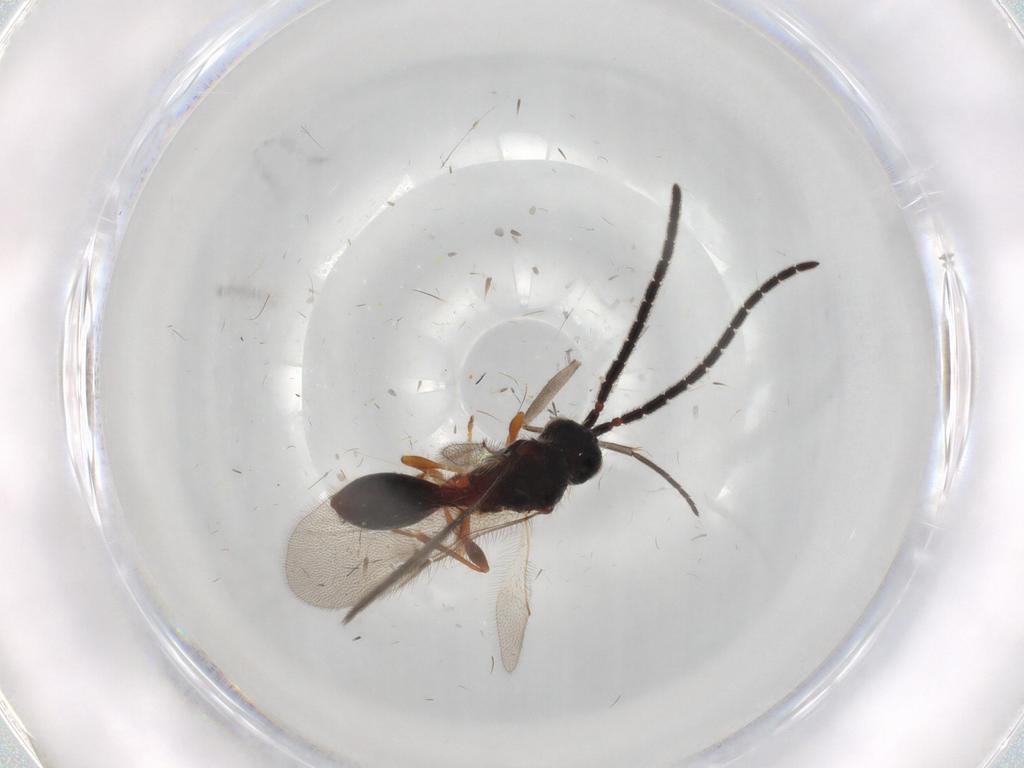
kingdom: Animalia
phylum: Arthropoda
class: Insecta
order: Hymenoptera
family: Diapriidae
